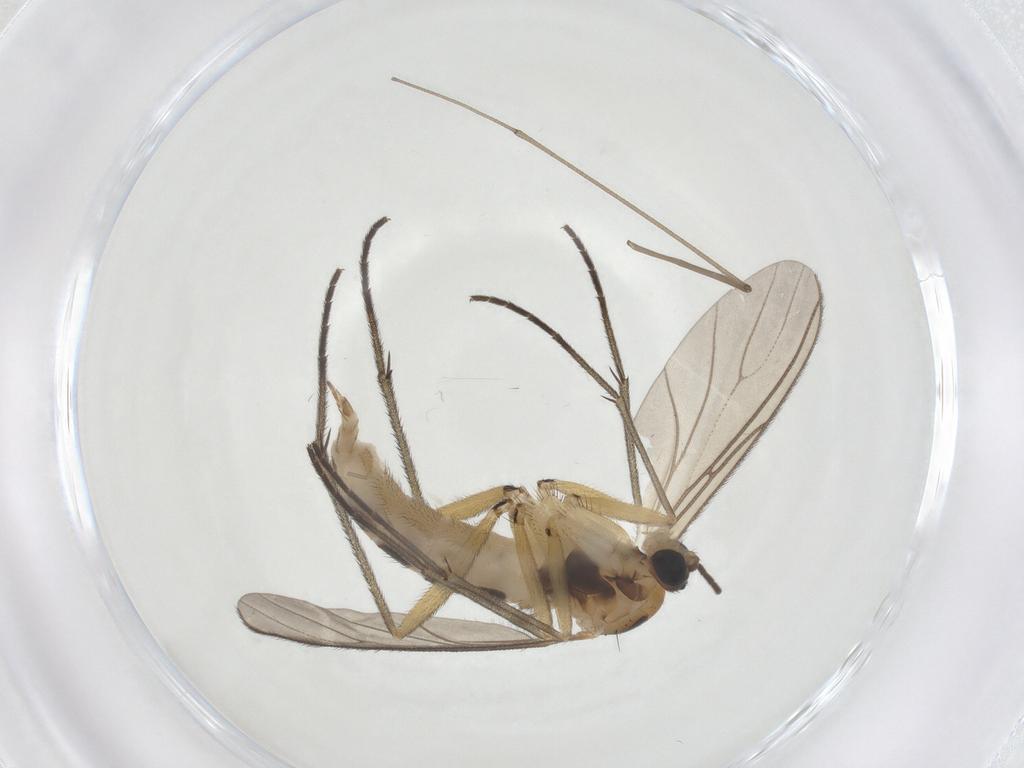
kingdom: Animalia
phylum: Arthropoda
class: Insecta
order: Diptera
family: Sciaridae
